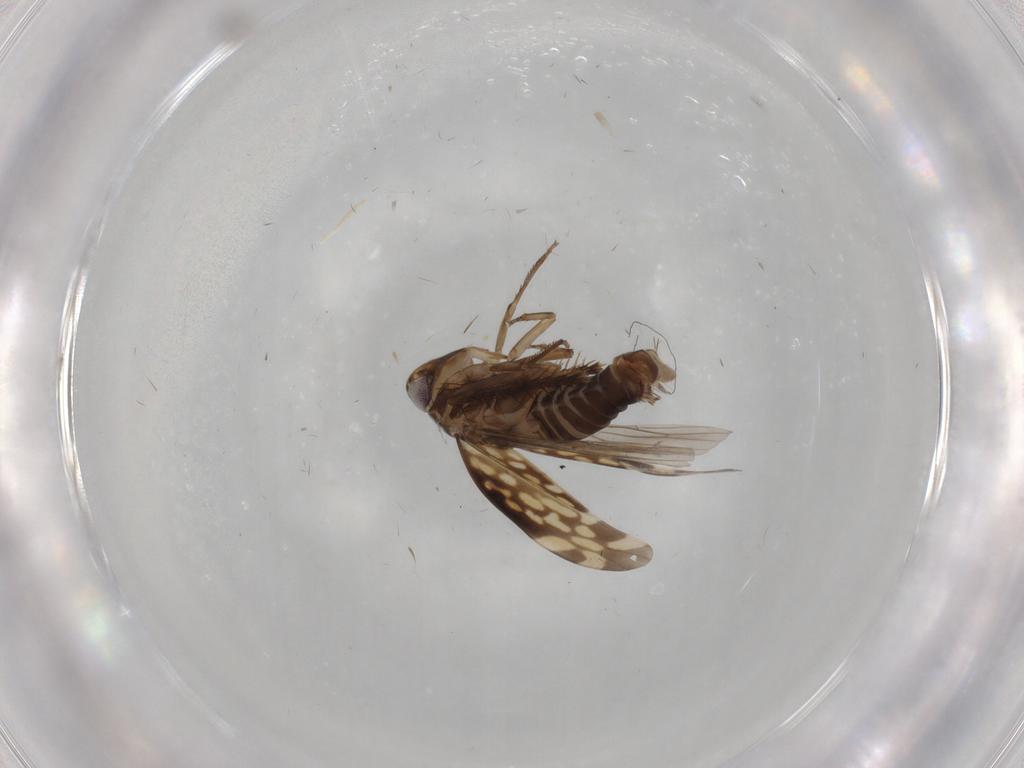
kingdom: Animalia
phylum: Arthropoda
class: Insecta
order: Hemiptera
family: Cicadellidae
